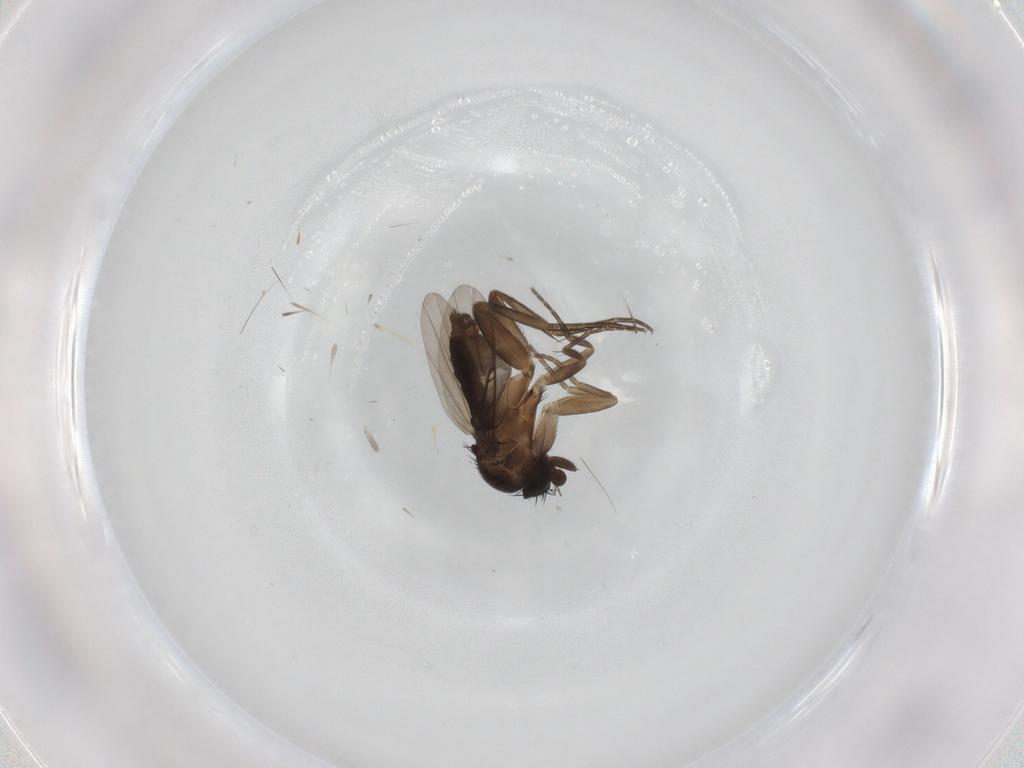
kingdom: Animalia
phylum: Arthropoda
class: Insecta
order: Diptera
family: Phoridae
